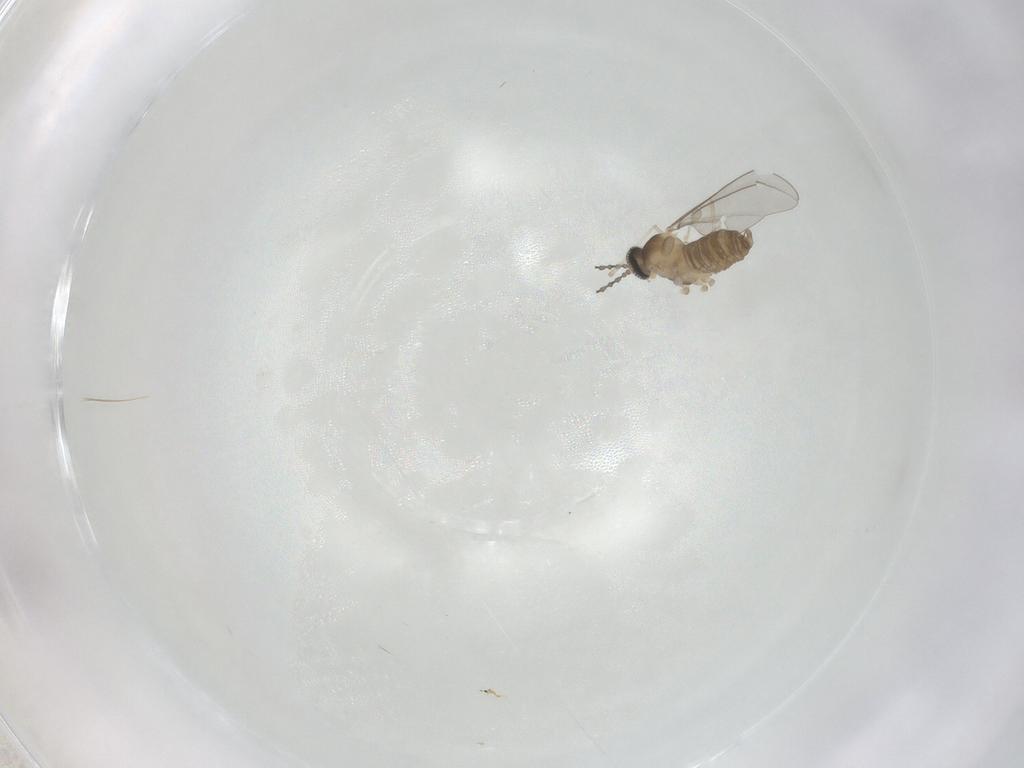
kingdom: Animalia
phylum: Arthropoda
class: Insecta
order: Diptera
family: Cecidomyiidae
